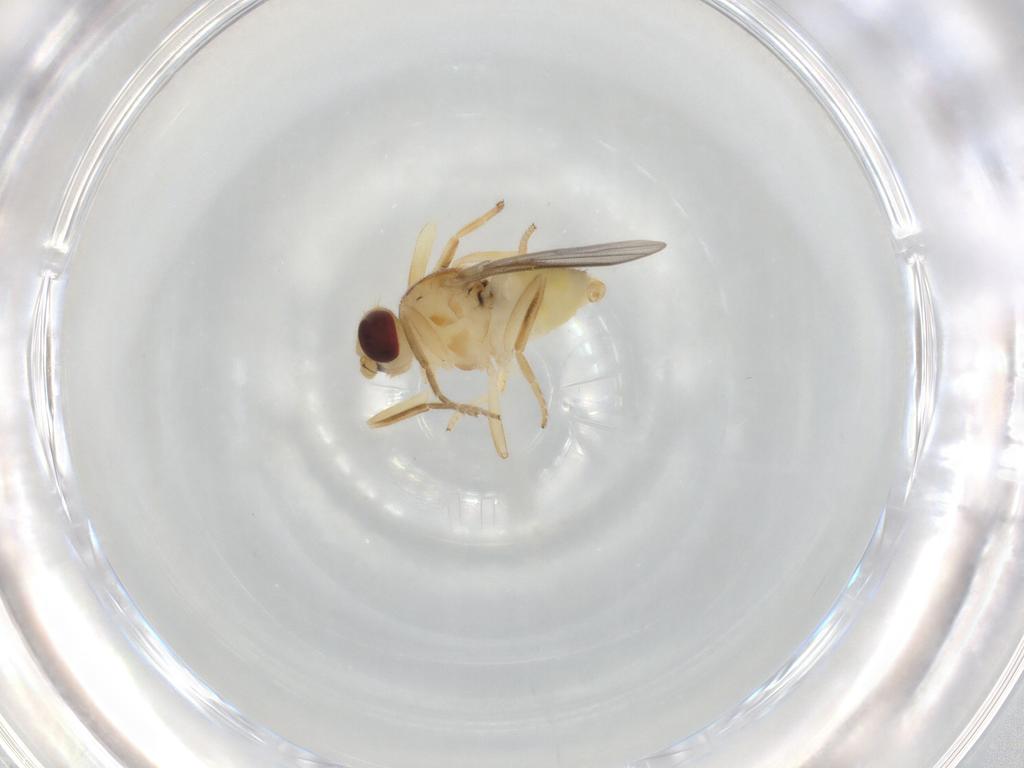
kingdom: Animalia
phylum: Arthropoda
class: Insecta
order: Diptera
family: Chloropidae
